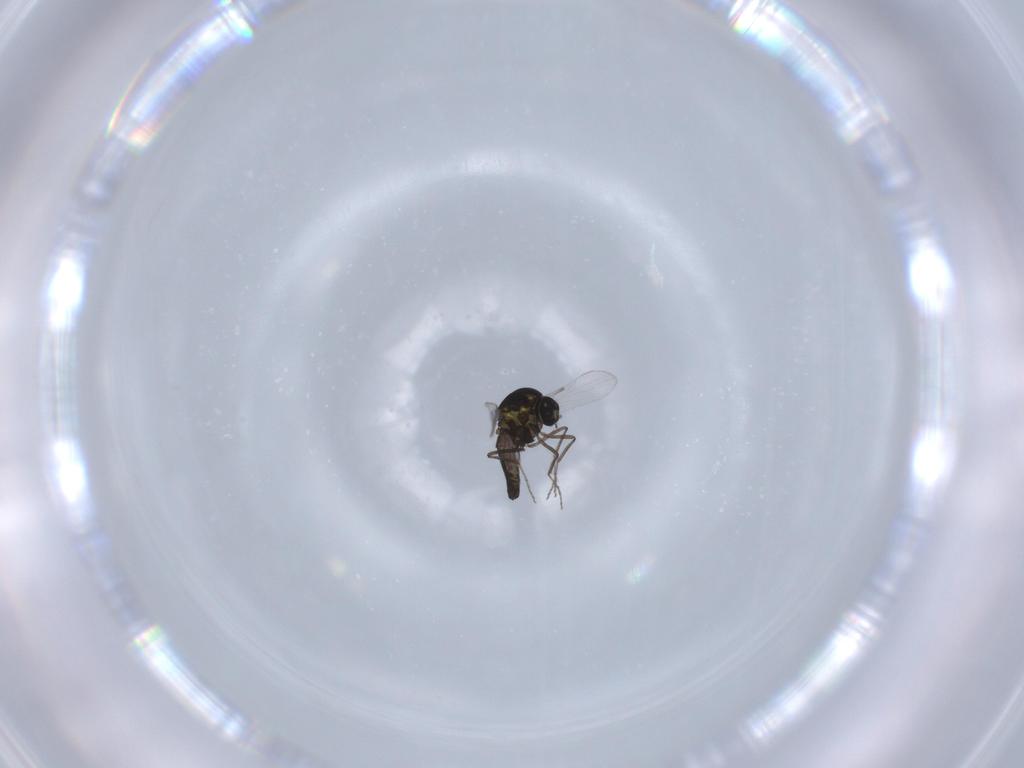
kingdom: Animalia
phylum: Arthropoda
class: Insecta
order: Diptera
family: Ceratopogonidae
